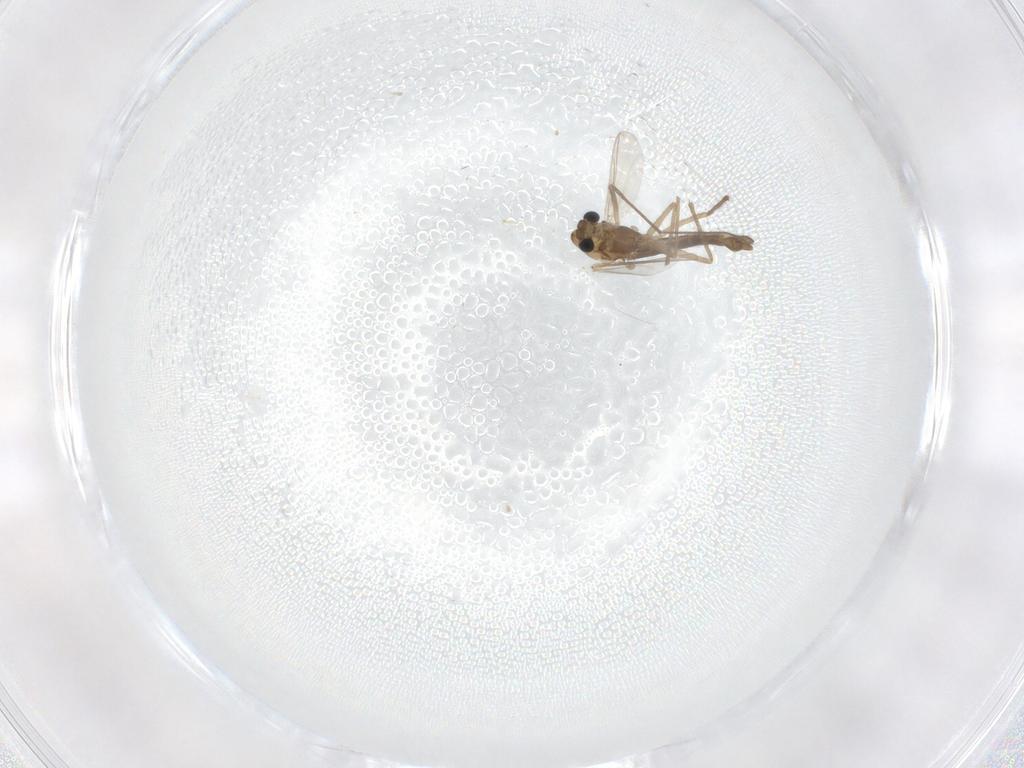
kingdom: Animalia
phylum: Arthropoda
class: Insecta
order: Diptera
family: Chironomidae
